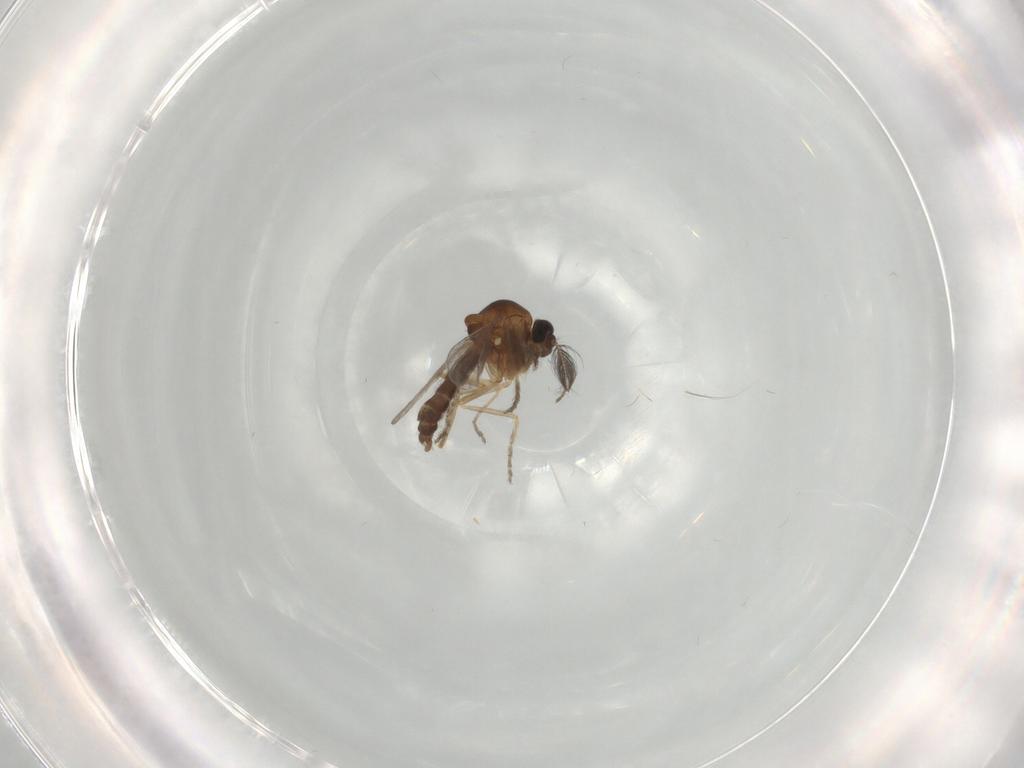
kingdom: Animalia
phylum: Arthropoda
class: Insecta
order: Diptera
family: Ceratopogonidae
